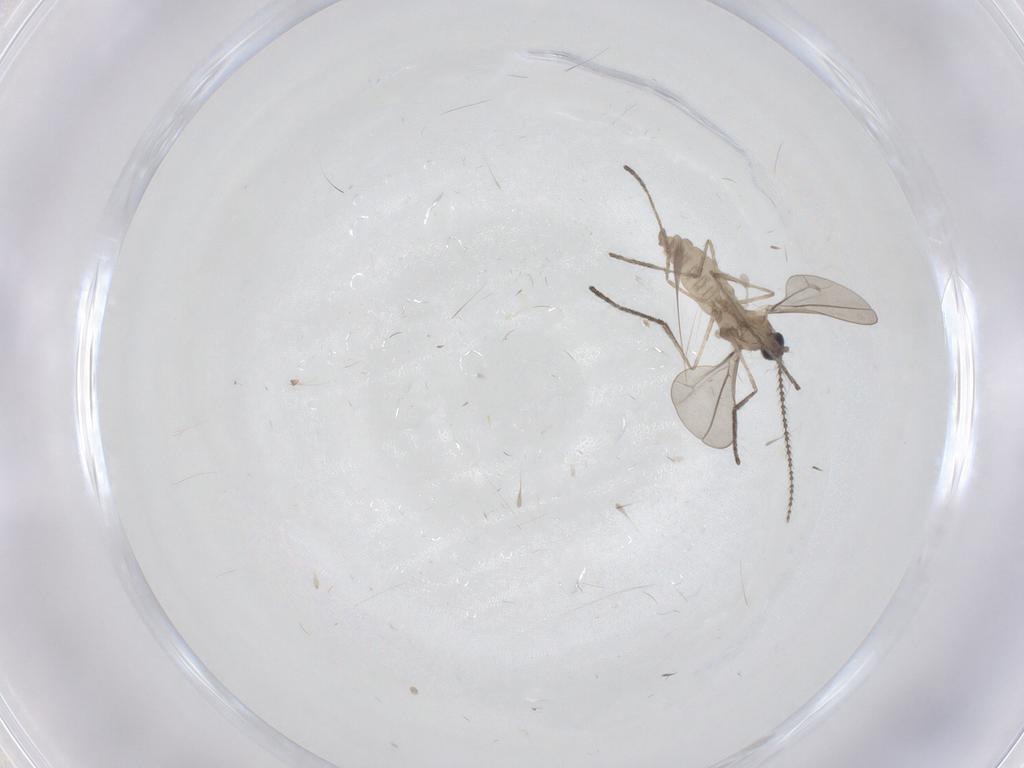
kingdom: Animalia
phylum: Arthropoda
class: Insecta
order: Diptera
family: Cecidomyiidae
